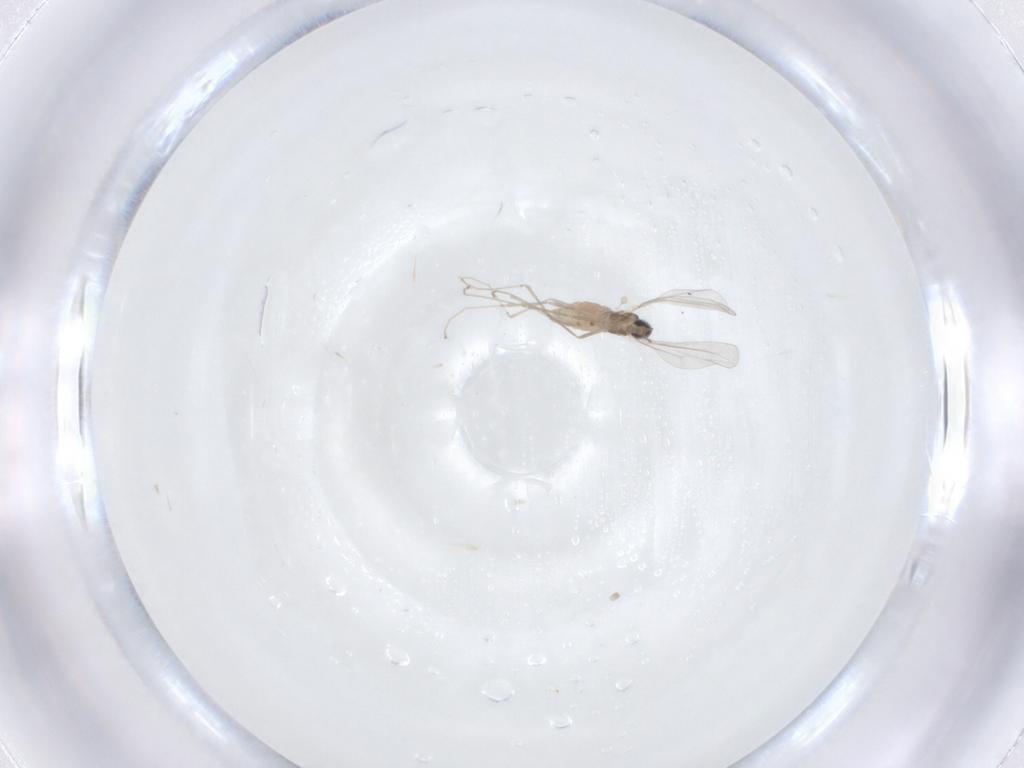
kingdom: Animalia
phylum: Arthropoda
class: Insecta
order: Diptera
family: Cecidomyiidae
